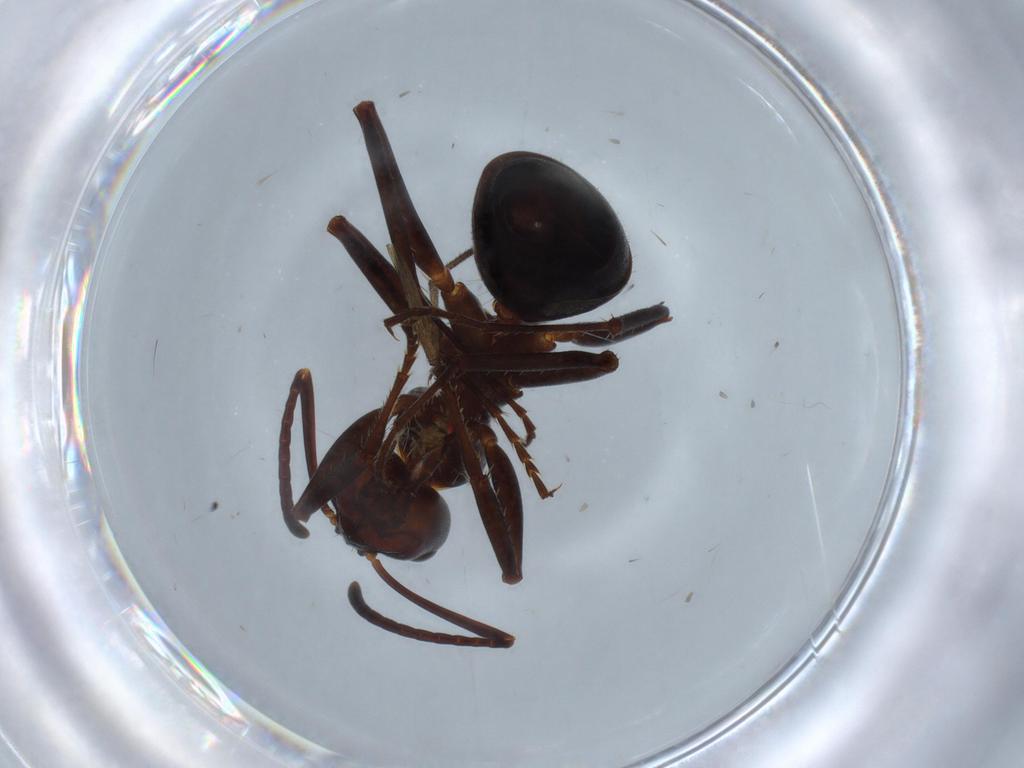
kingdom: Animalia
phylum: Arthropoda
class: Insecta
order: Hymenoptera
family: Formicidae
